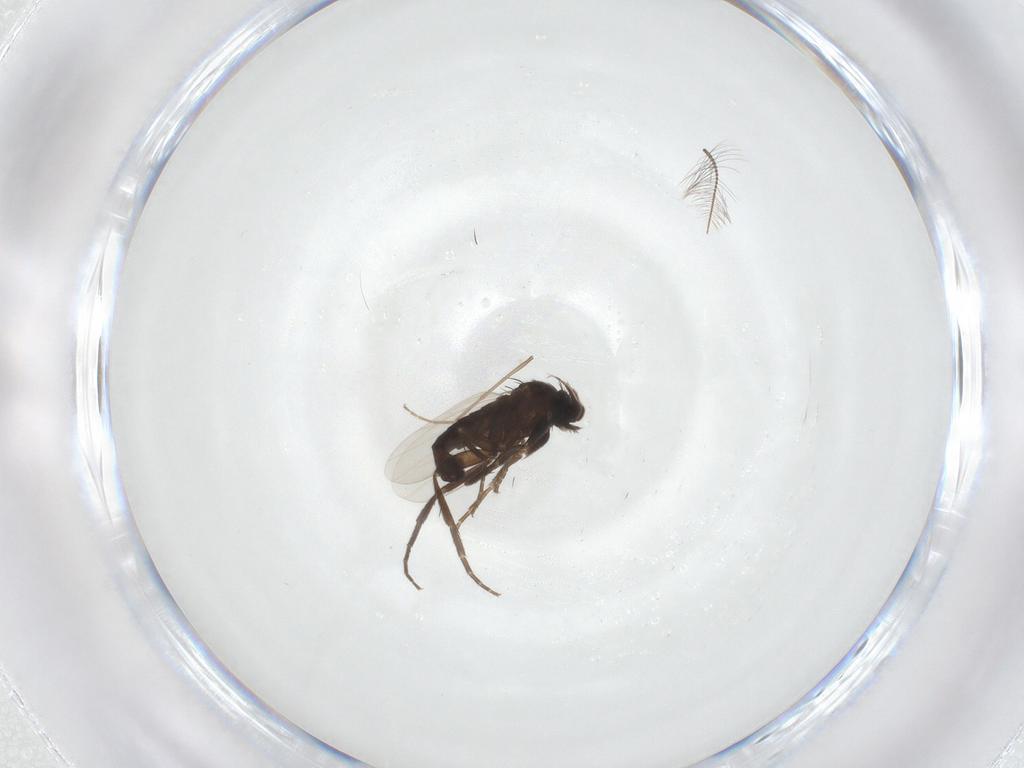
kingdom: Animalia
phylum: Arthropoda
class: Insecta
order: Diptera
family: Phoridae
